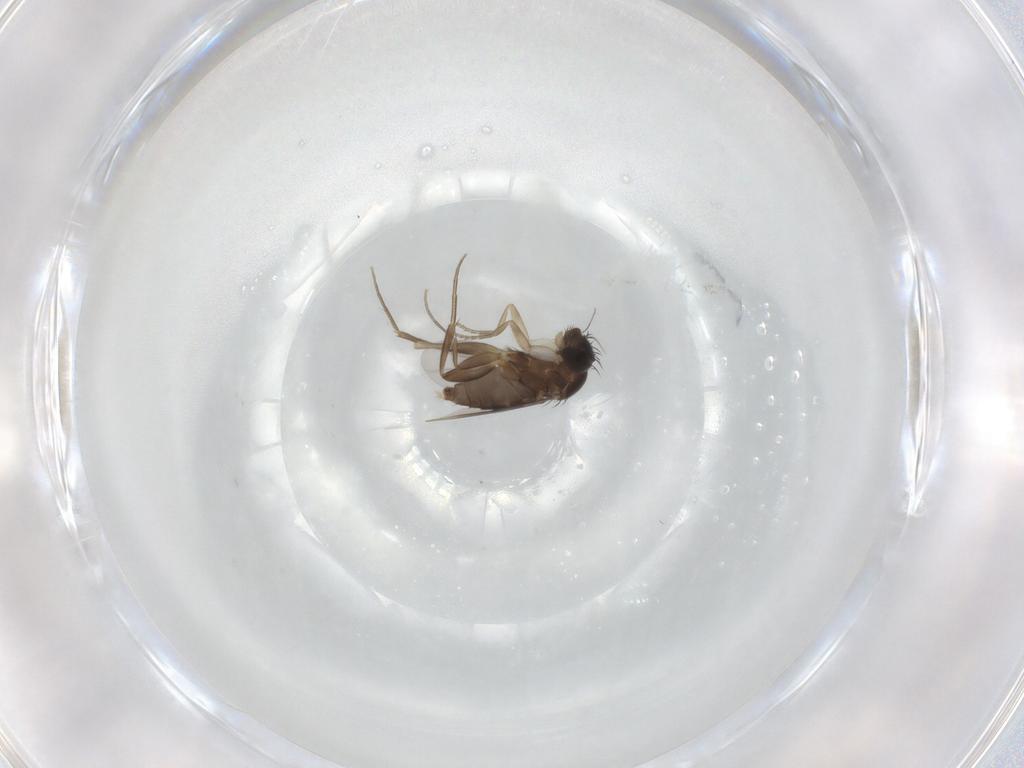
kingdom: Animalia
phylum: Arthropoda
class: Insecta
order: Diptera
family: Phoridae
